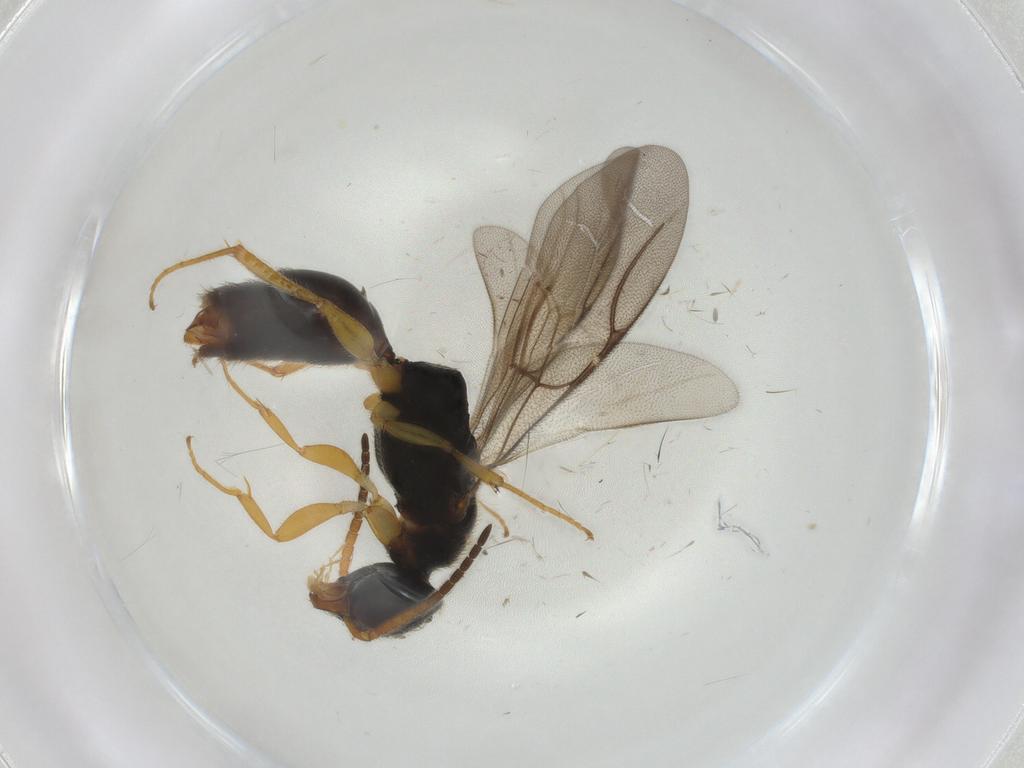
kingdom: Animalia
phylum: Arthropoda
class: Insecta
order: Hymenoptera
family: Bethylidae
